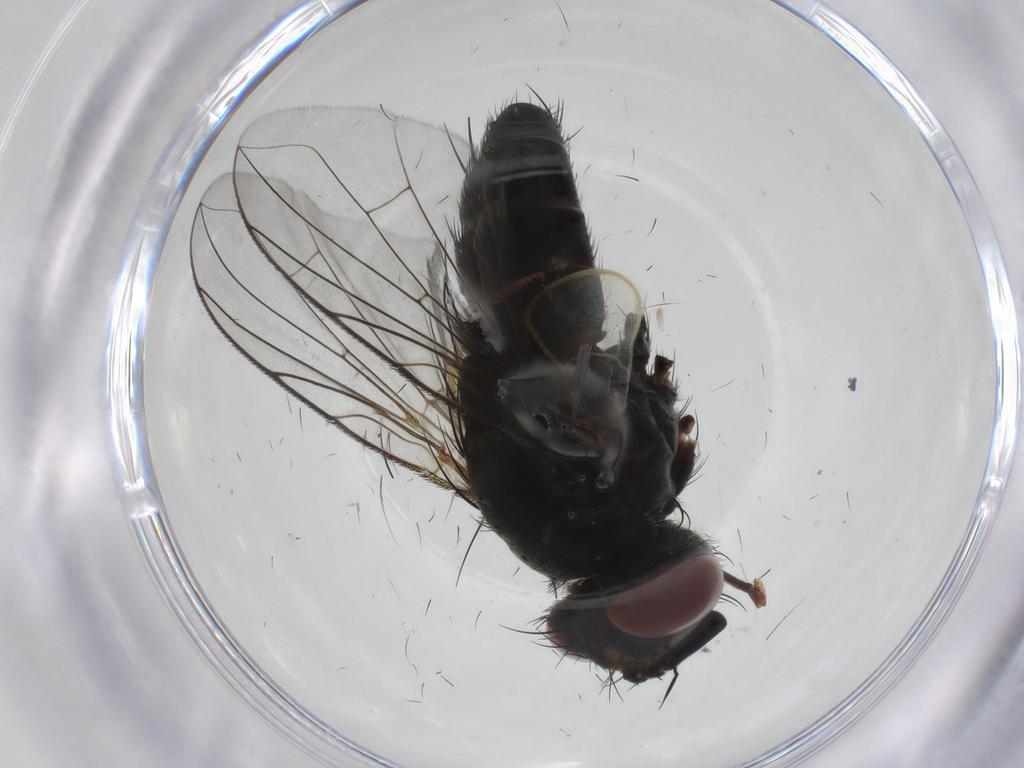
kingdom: Animalia
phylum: Arthropoda
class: Insecta
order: Diptera
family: Tachinidae
